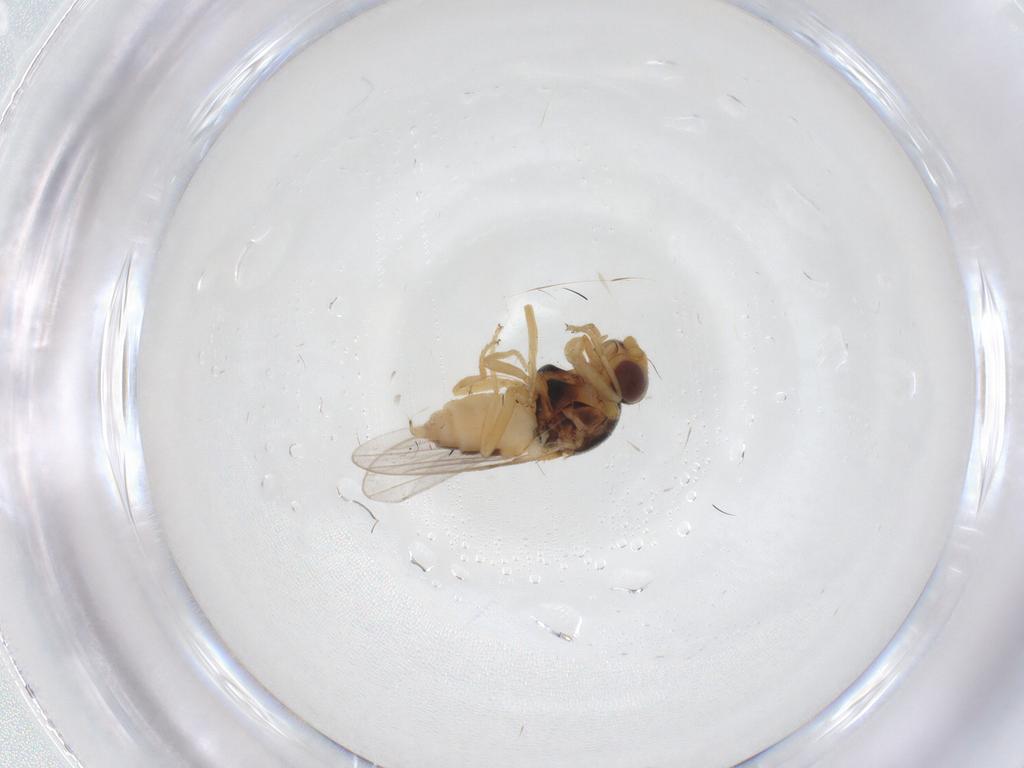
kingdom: Animalia
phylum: Arthropoda
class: Insecta
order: Diptera
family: Chloropidae
